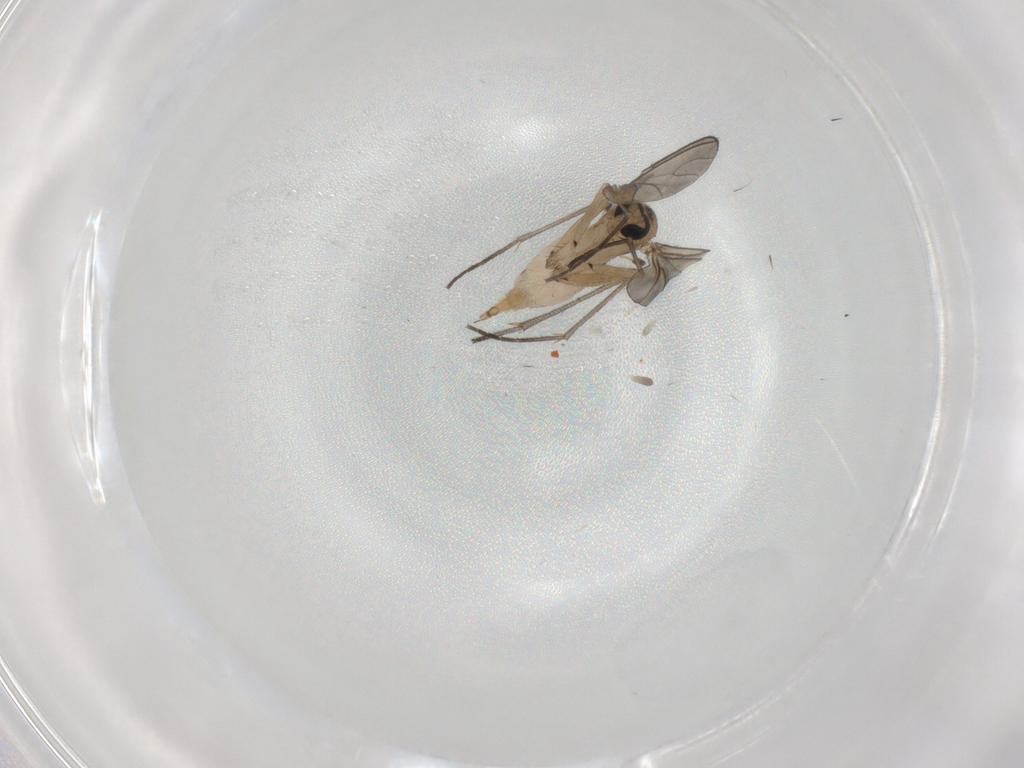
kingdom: Animalia
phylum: Arthropoda
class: Insecta
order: Diptera
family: Sciaridae
